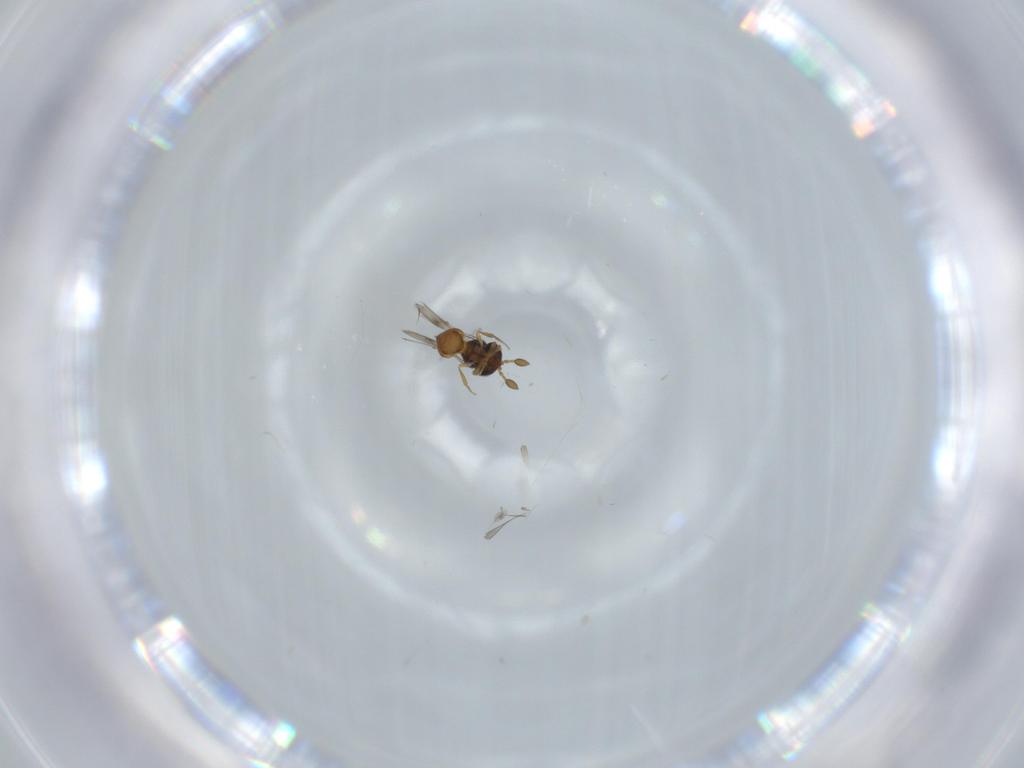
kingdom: Animalia
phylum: Arthropoda
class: Insecta
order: Hymenoptera
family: Scelionidae
